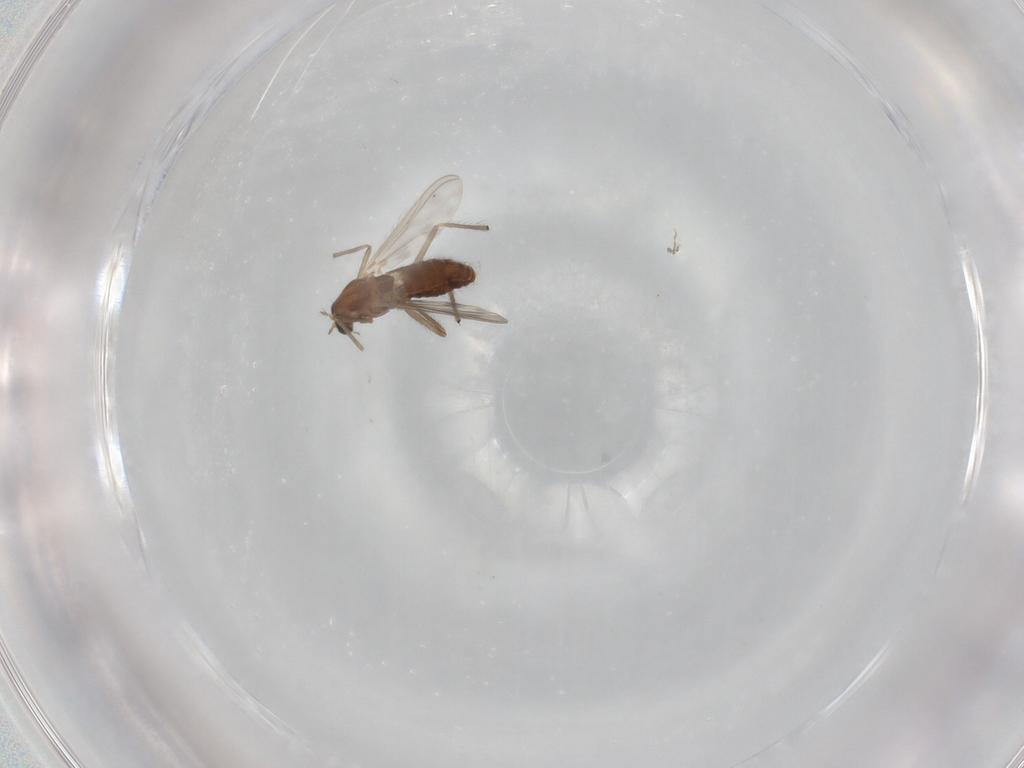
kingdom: Animalia
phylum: Arthropoda
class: Insecta
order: Diptera
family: Chironomidae
